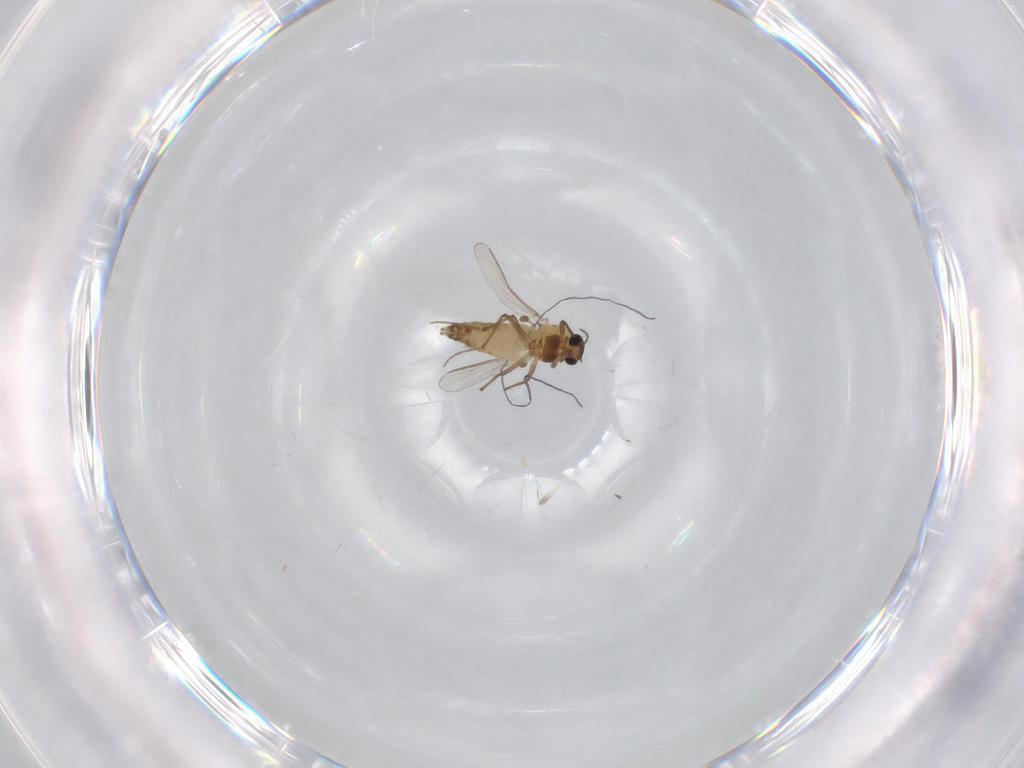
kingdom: Animalia
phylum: Arthropoda
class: Insecta
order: Diptera
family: Chironomidae
